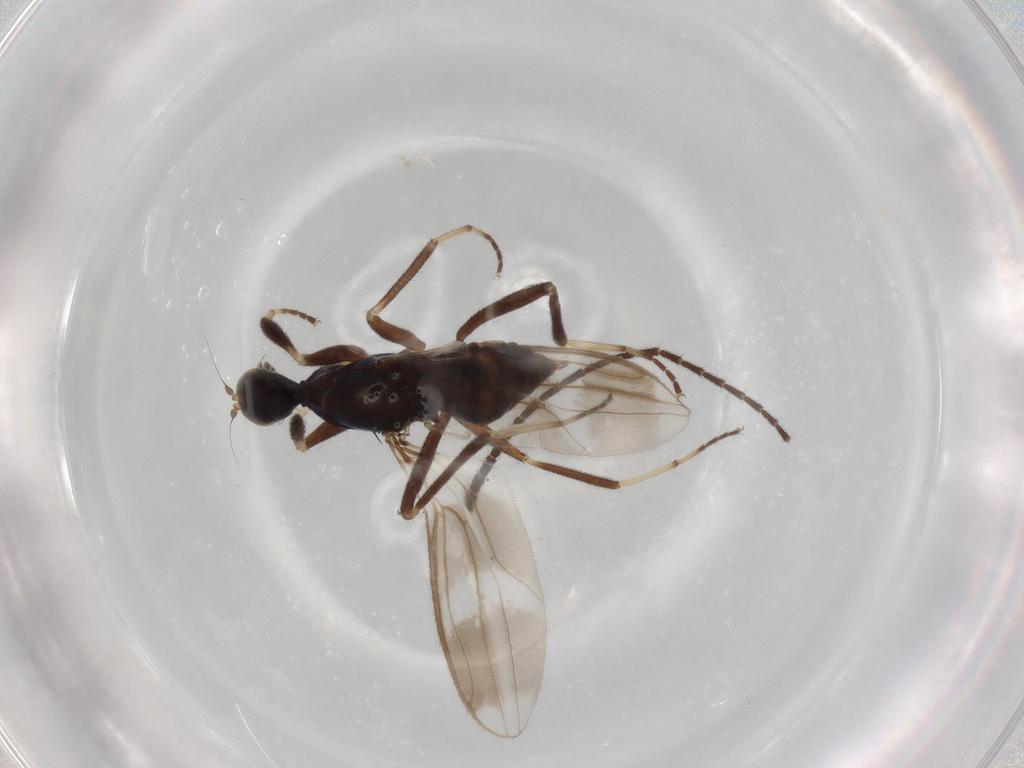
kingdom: Animalia
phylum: Arthropoda
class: Insecta
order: Diptera
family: Hybotidae
